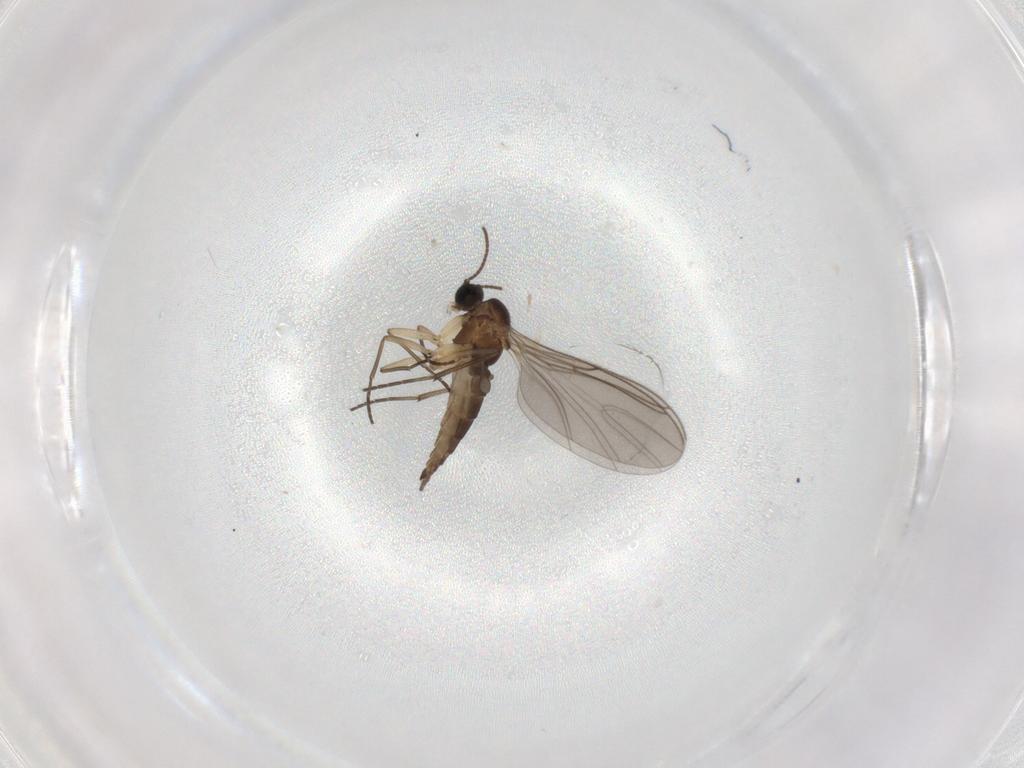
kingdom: Animalia
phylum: Arthropoda
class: Insecta
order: Diptera
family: Sciaridae
